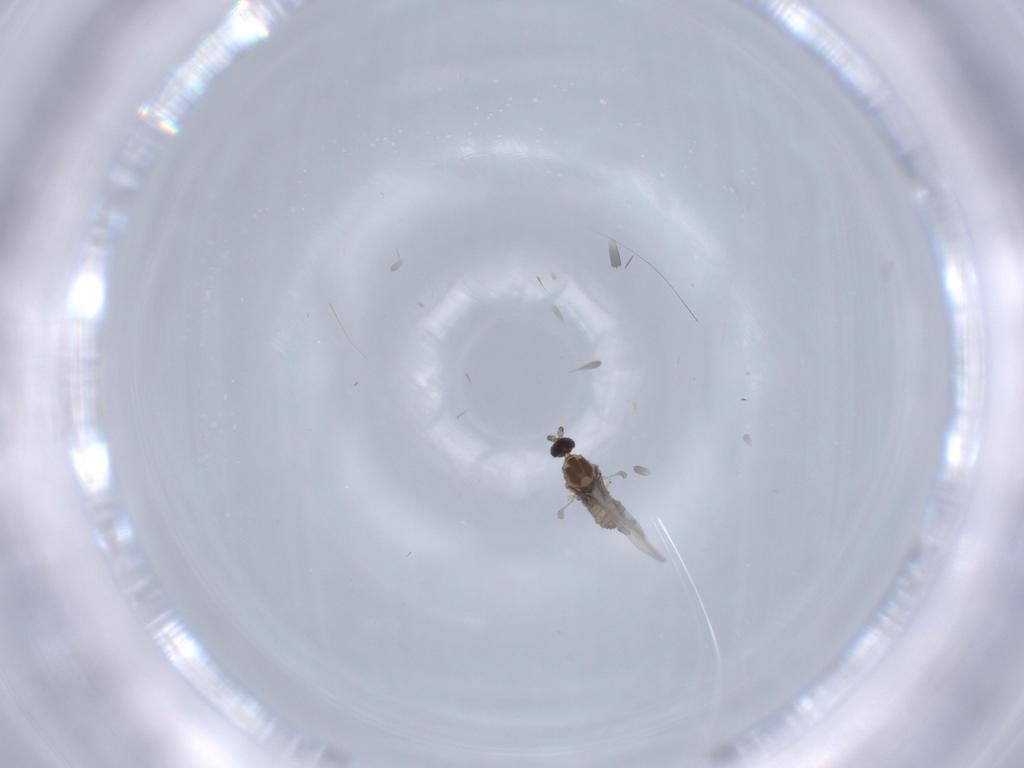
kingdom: Animalia
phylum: Arthropoda
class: Insecta
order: Diptera
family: Cecidomyiidae
